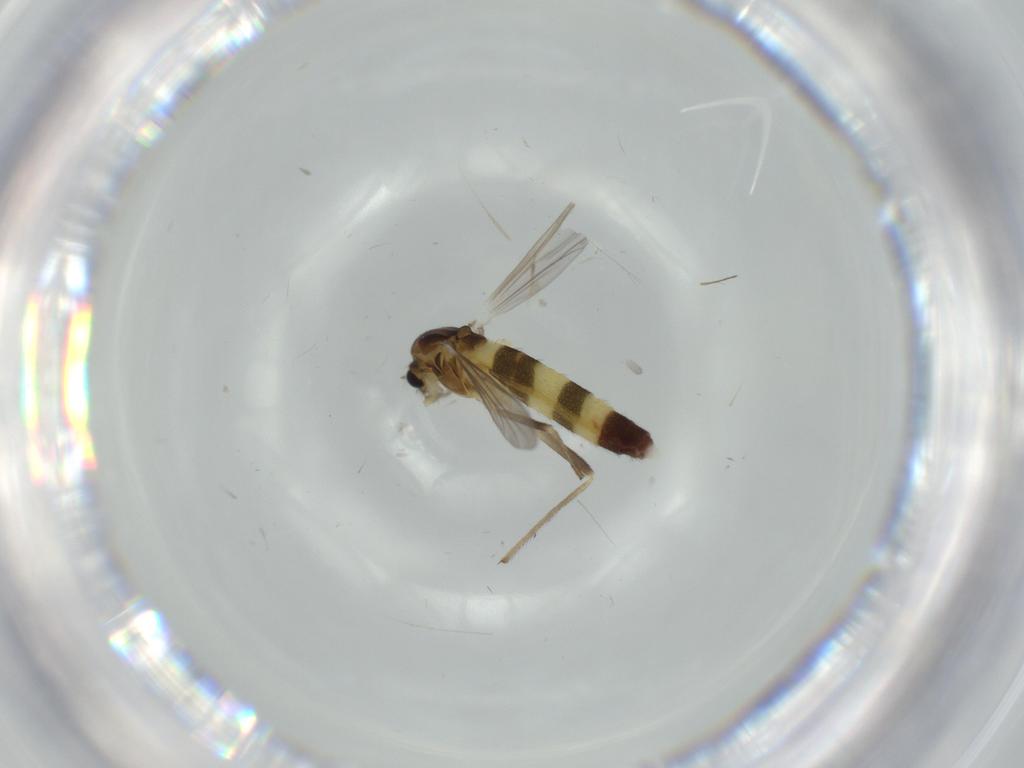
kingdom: Animalia
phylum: Arthropoda
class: Insecta
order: Diptera
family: Chironomidae
